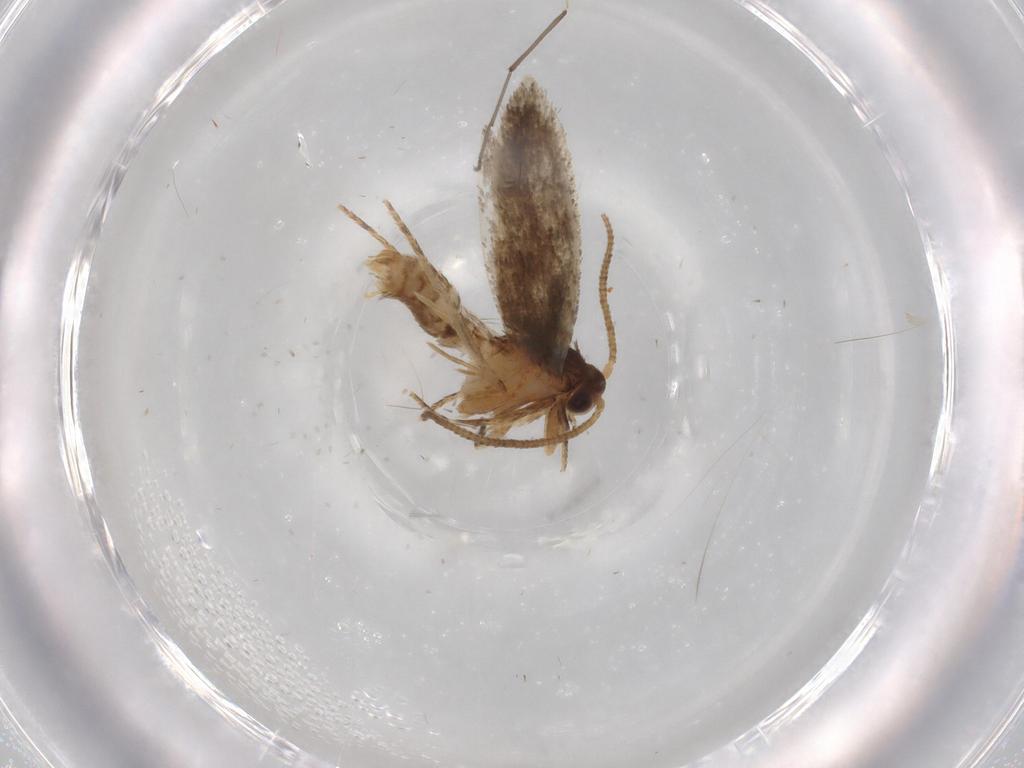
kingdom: Animalia
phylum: Arthropoda
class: Insecta
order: Lepidoptera
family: Tineidae
